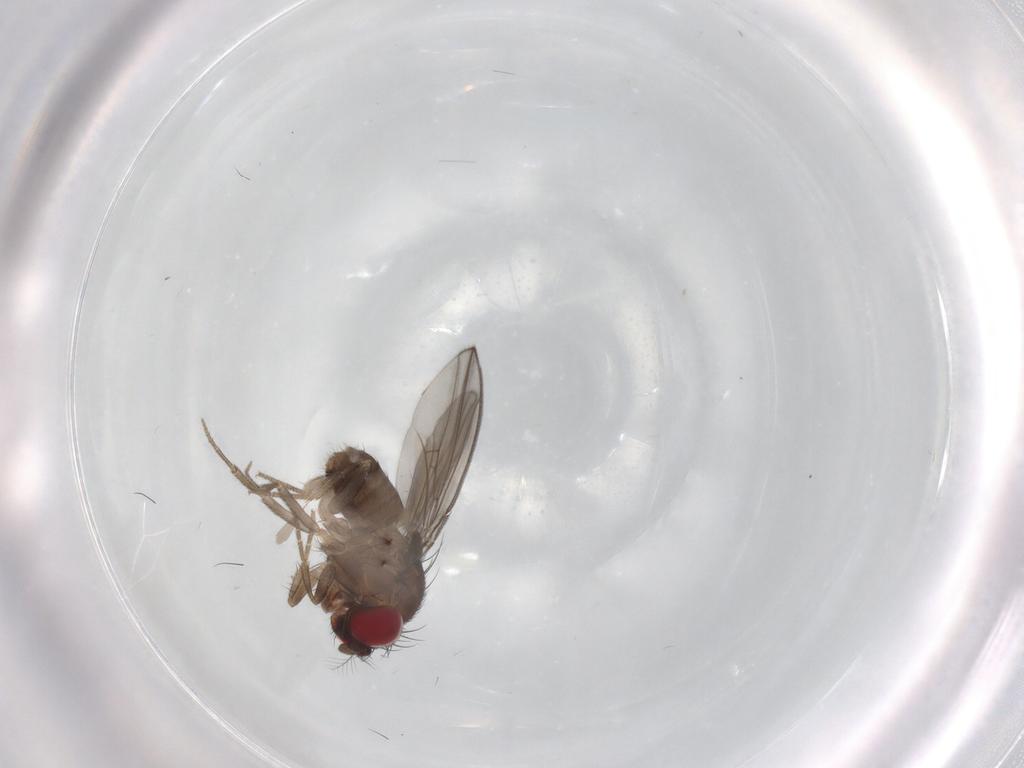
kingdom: Animalia
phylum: Arthropoda
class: Insecta
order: Diptera
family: Drosophilidae
